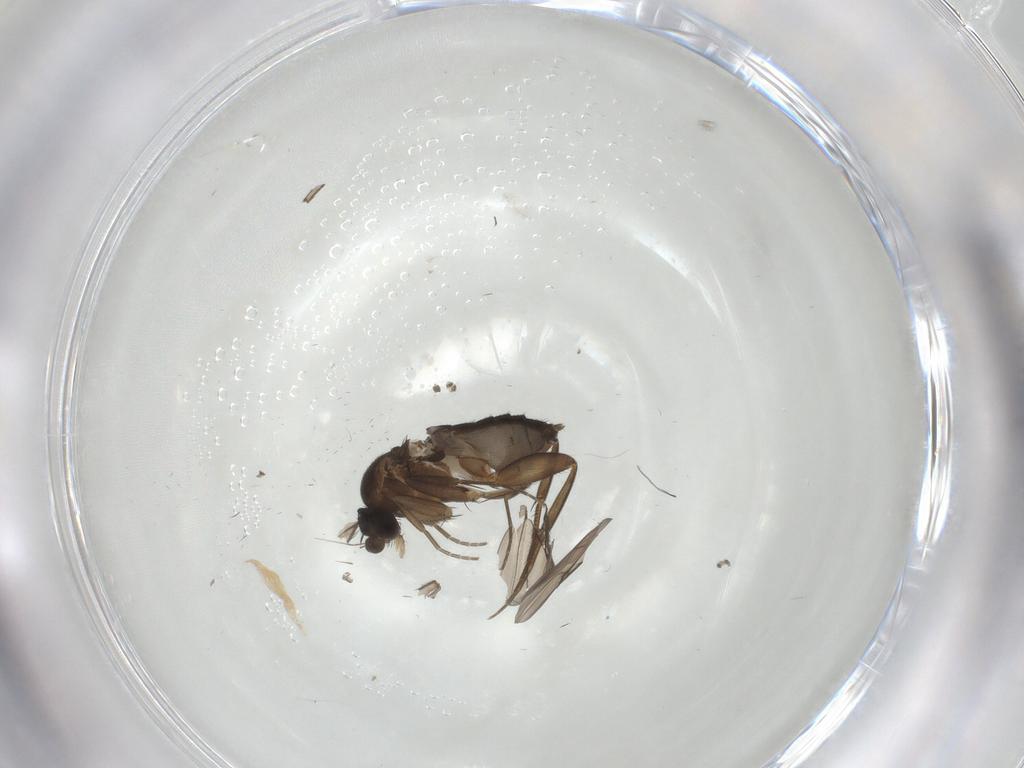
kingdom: Animalia
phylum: Arthropoda
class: Insecta
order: Diptera
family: Phoridae
